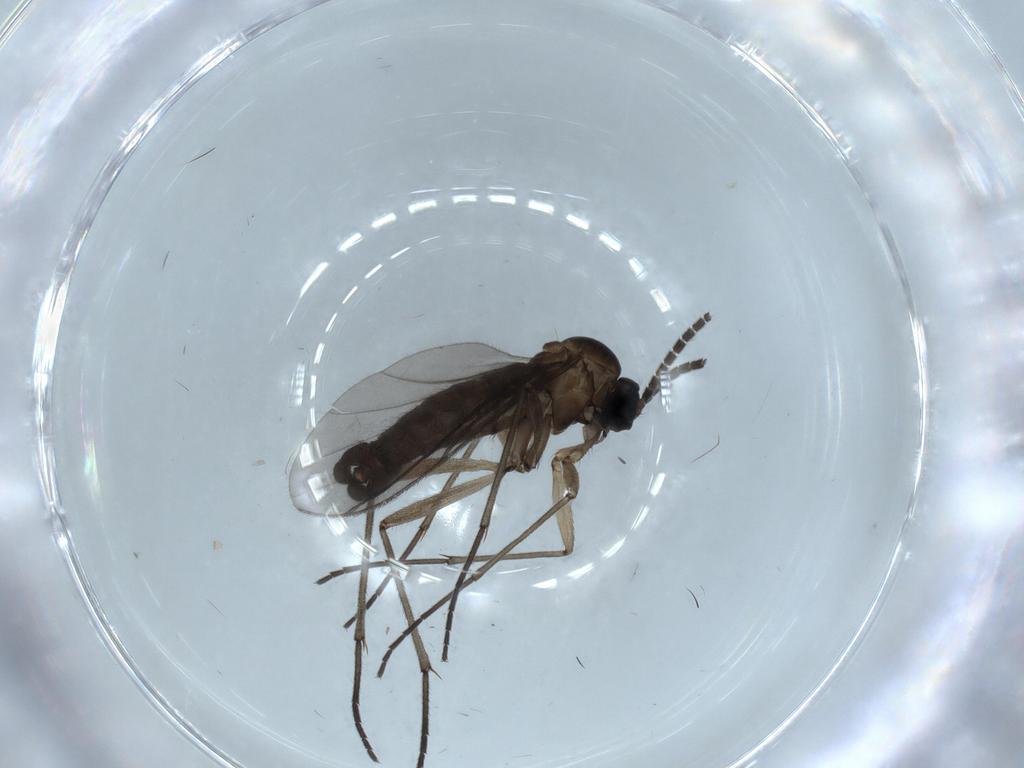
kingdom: Animalia
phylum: Arthropoda
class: Insecta
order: Diptera
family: Sciaridae
